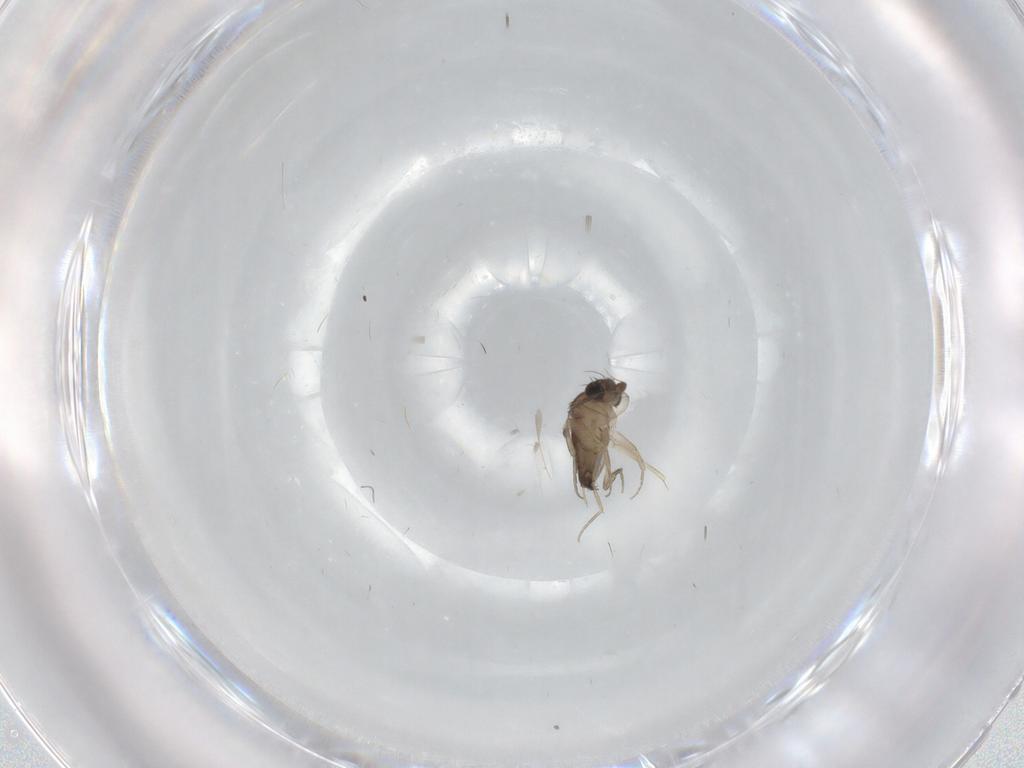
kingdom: Animalia
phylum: Arthropoda
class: Insecta
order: Diptera
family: Phoridae
